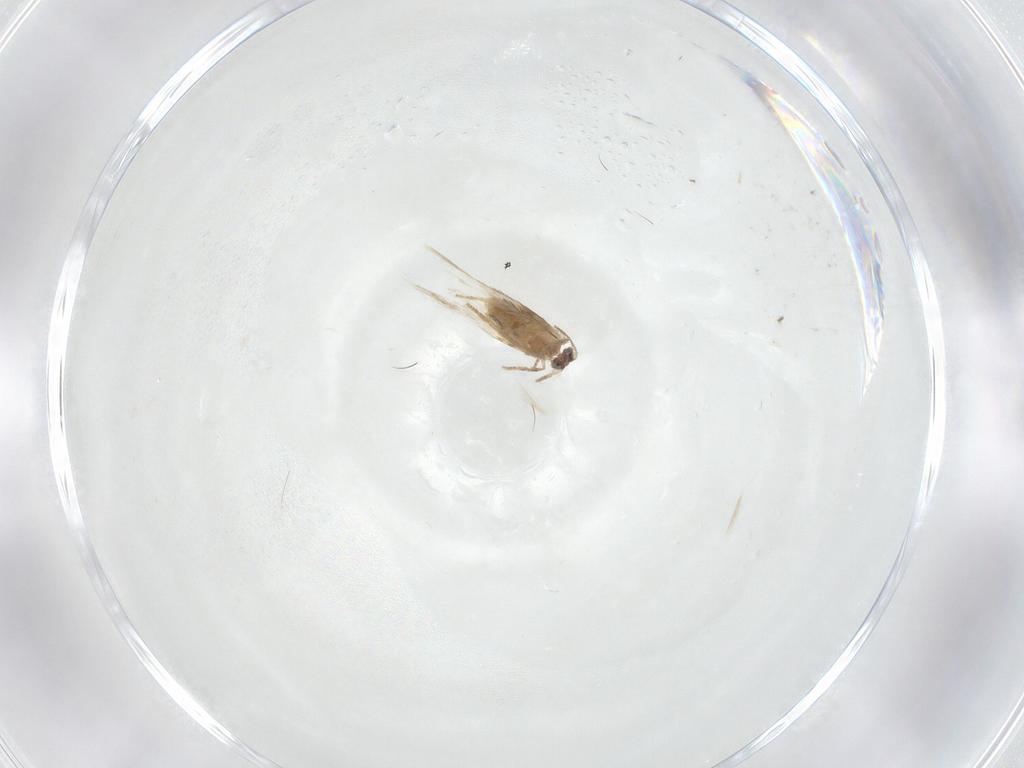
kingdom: Animalia
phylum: Arthropoda
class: Insecta
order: Lepidoptera
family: Nepticulidae
